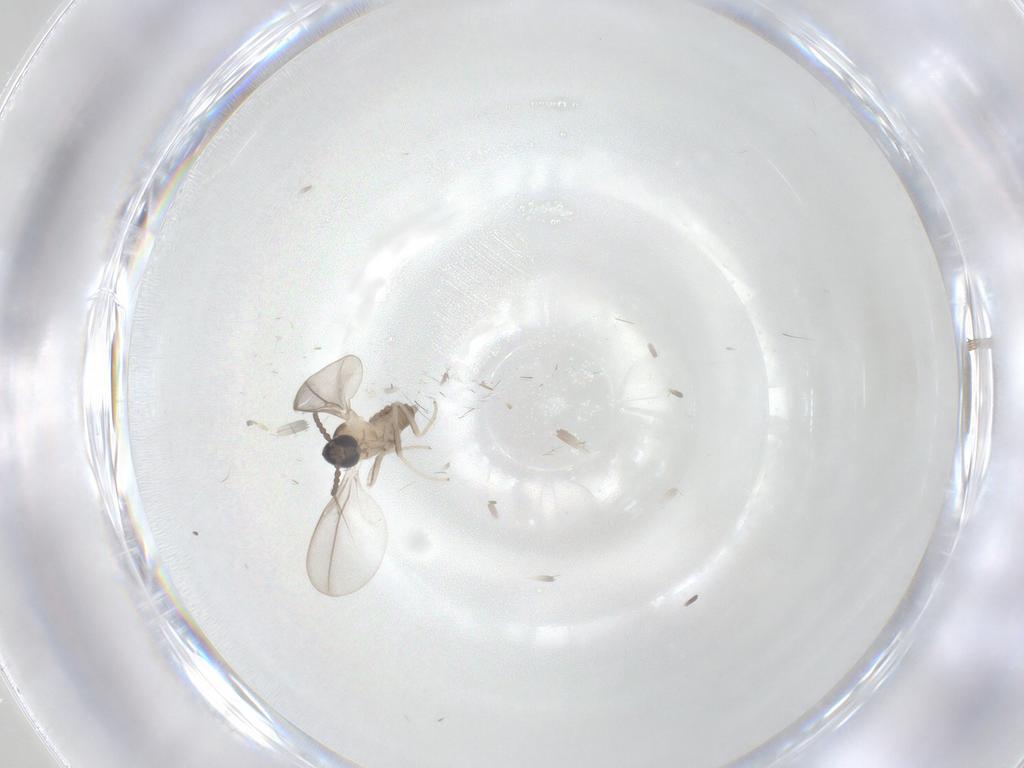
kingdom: Animalia
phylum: Arthropoda
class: Insecta
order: Diptera
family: Cecidomyiidae
